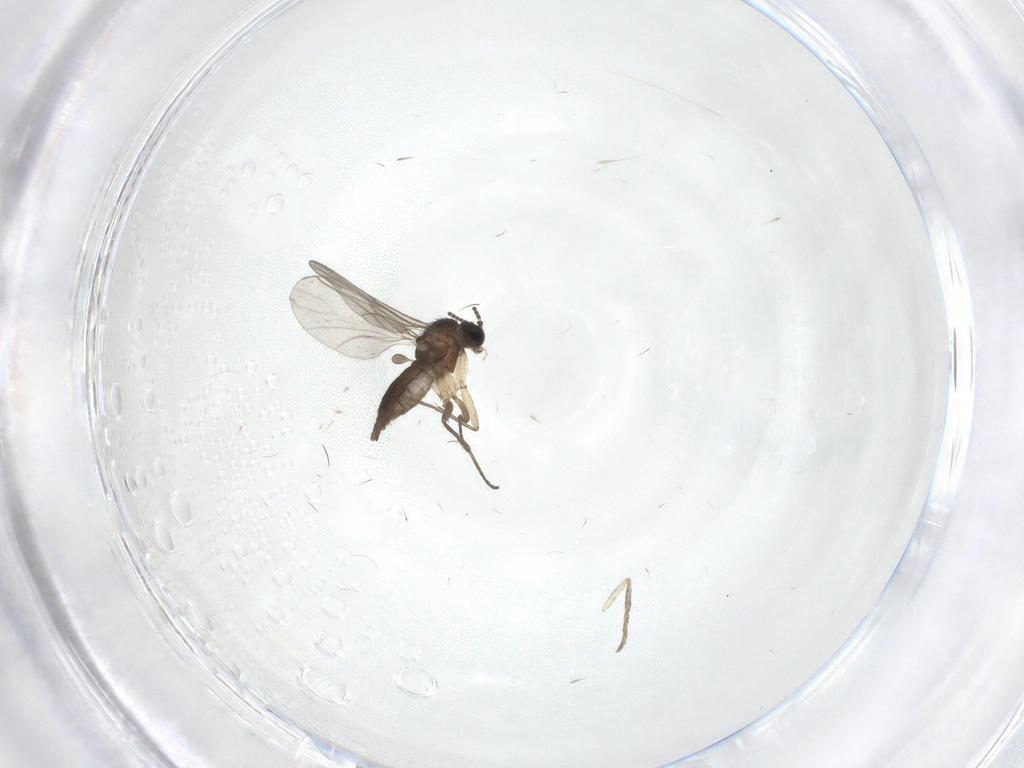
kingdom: Animalia
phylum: Arthropoda
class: Insecta
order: Diptera
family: Sciaridae
